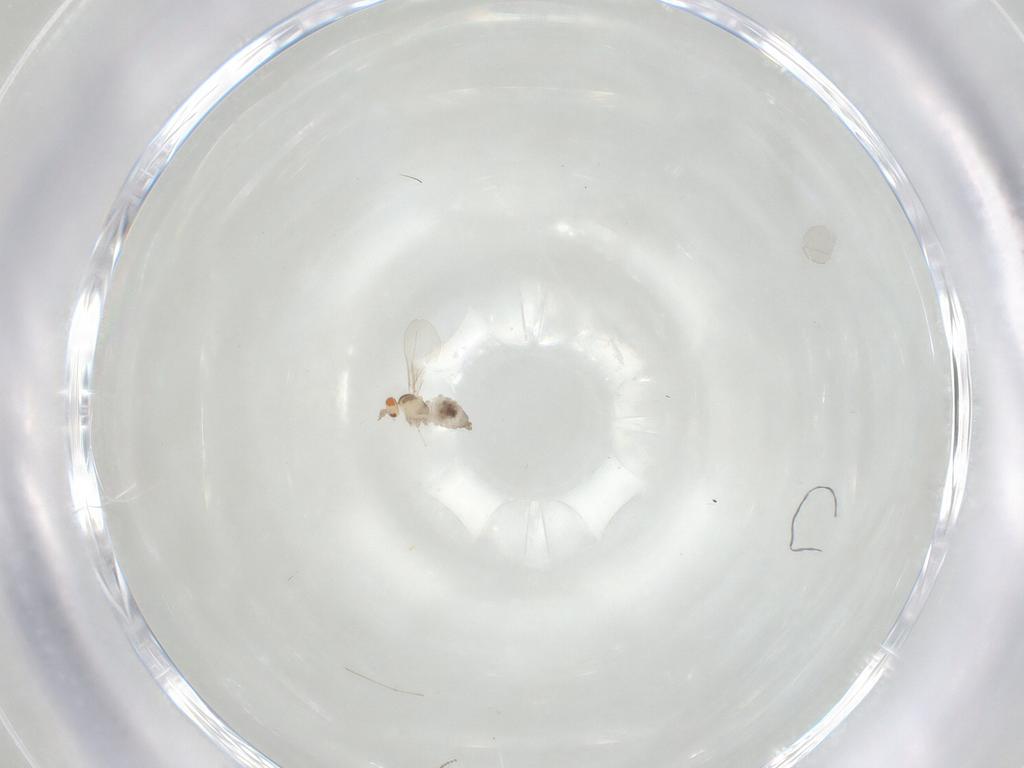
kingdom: Animalia
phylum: Arthropoda
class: Insecta
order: Diptera
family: Cecidomyiidae
